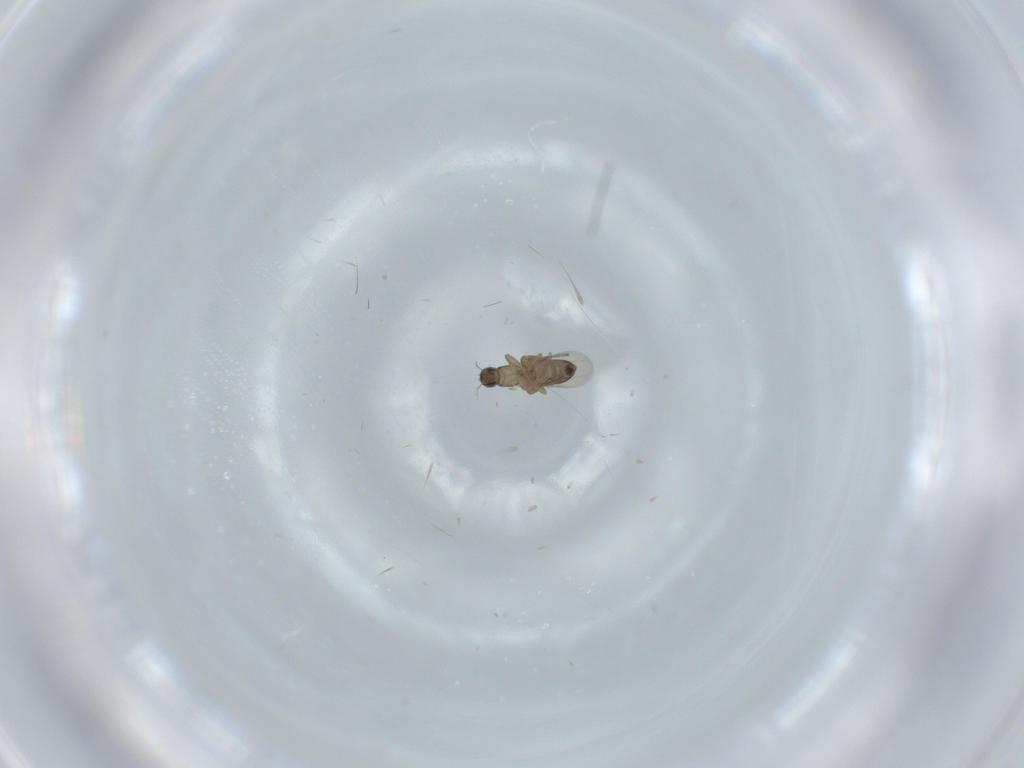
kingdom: Animalia
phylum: Arthropoda
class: Insecta
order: Diptera
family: Phoridae
